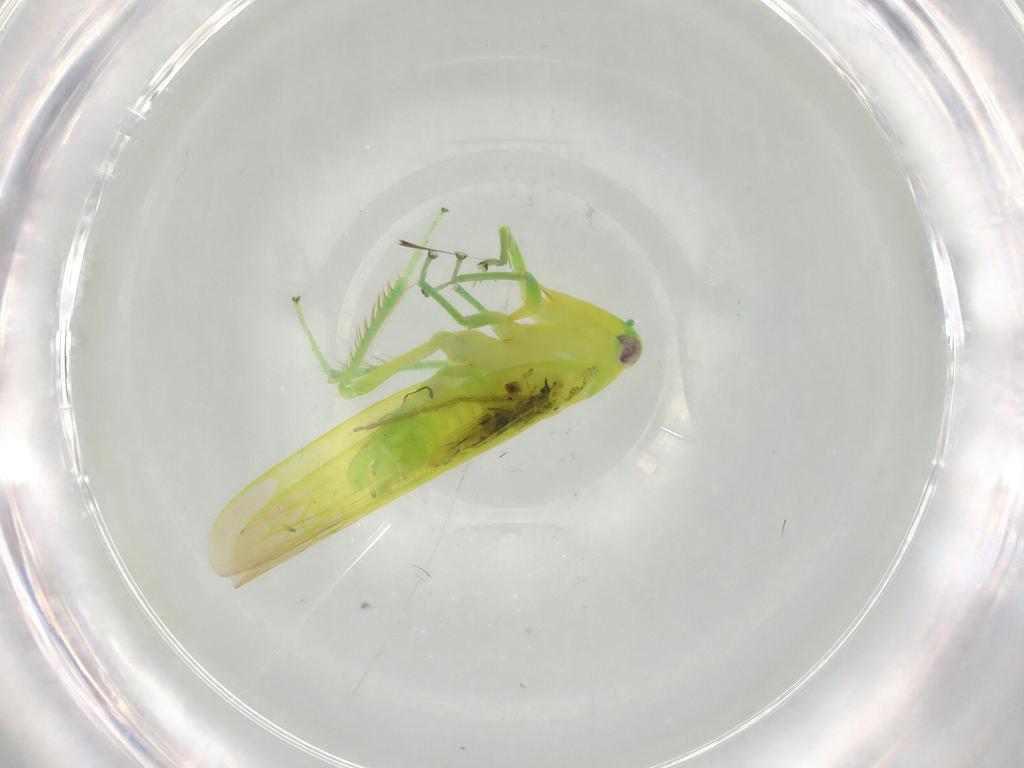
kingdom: Animalia
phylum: Arthropoda
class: Insecta
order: Hemiptera
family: Cicadellidae
